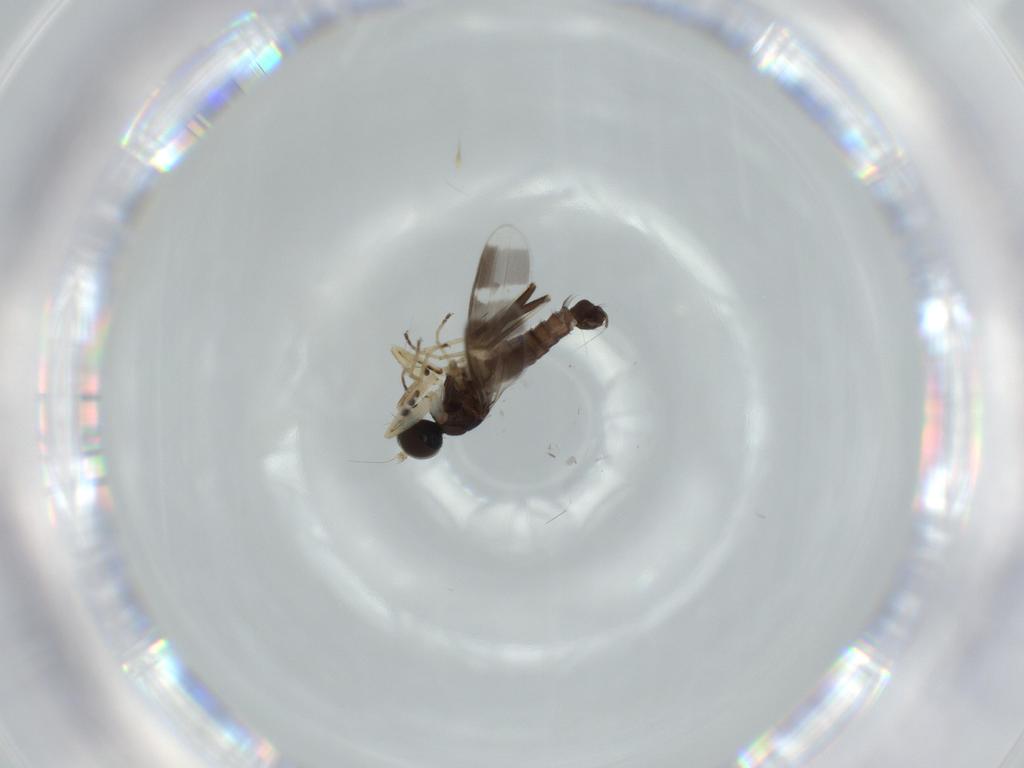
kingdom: Animalia
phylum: Arthropoda
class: Insecta
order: Diptera
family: Hybotidae
